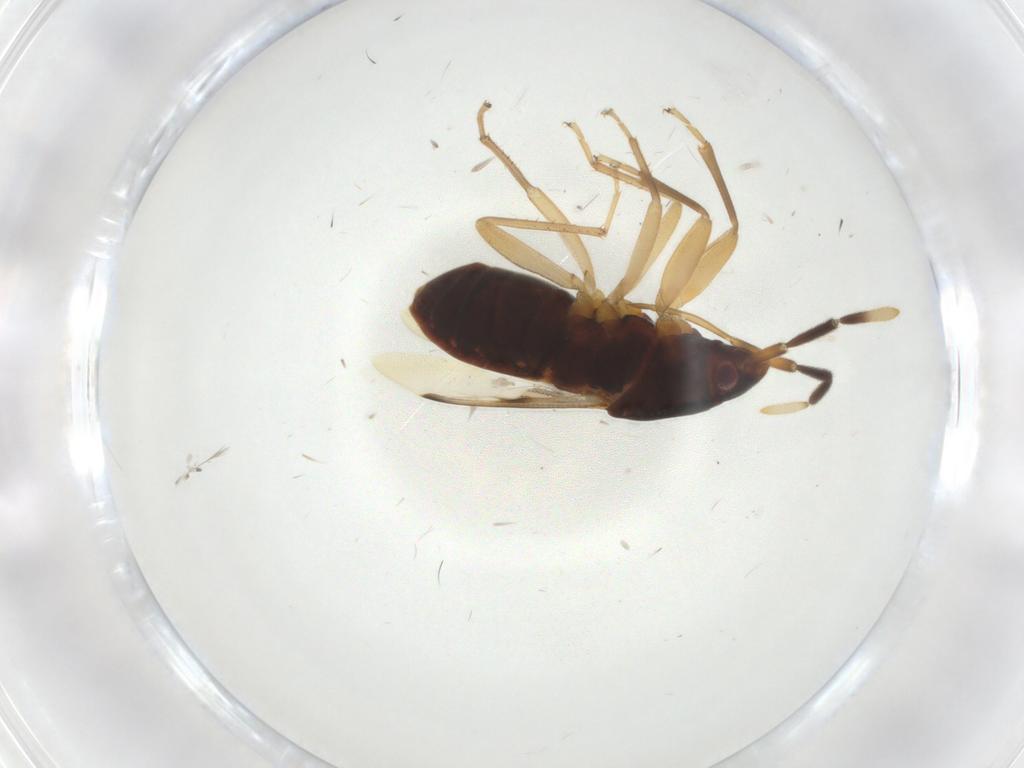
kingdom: Animalia
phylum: Arthropoda
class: Insecta
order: Hemiptera
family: Rhyparochromidae
